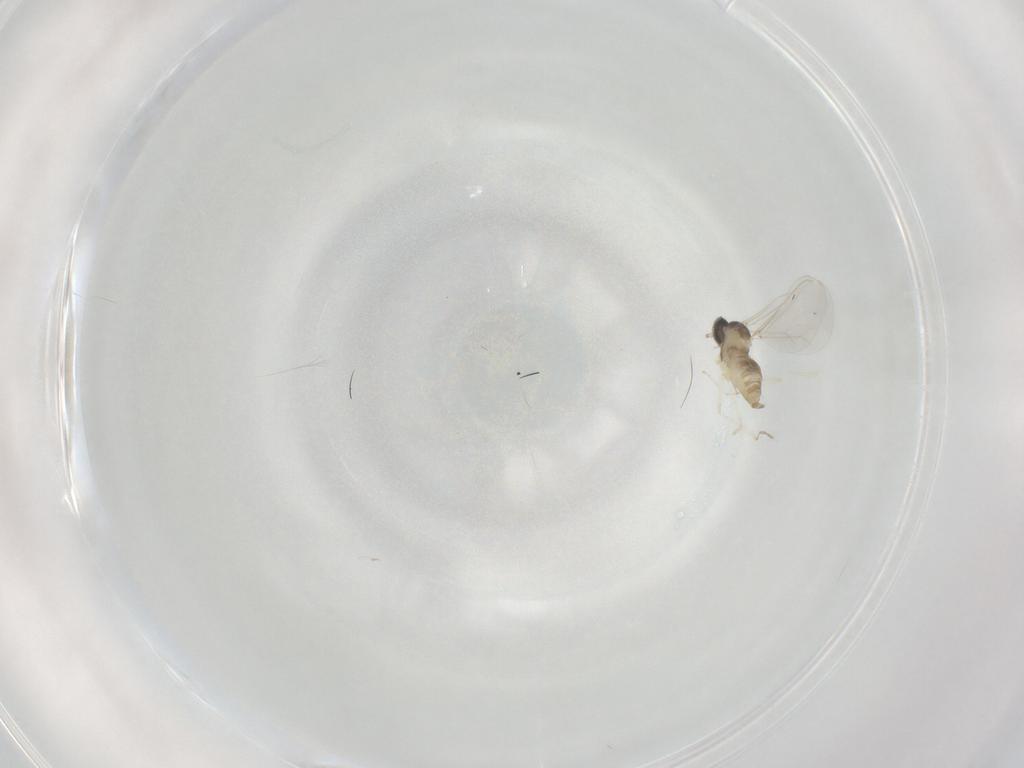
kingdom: Animalia
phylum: Arthropoda
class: Insecta
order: Diptera
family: Cecidomyiidae
